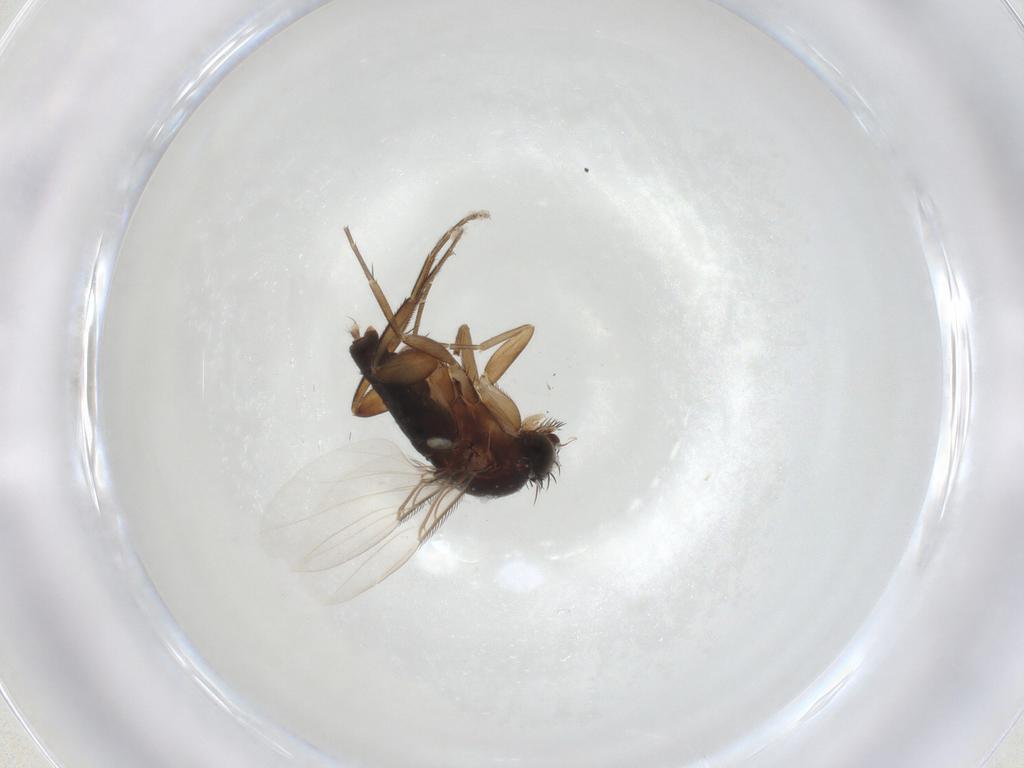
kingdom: Animalia
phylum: Arthropoda
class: Insecta
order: Diptera
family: Phoridae
